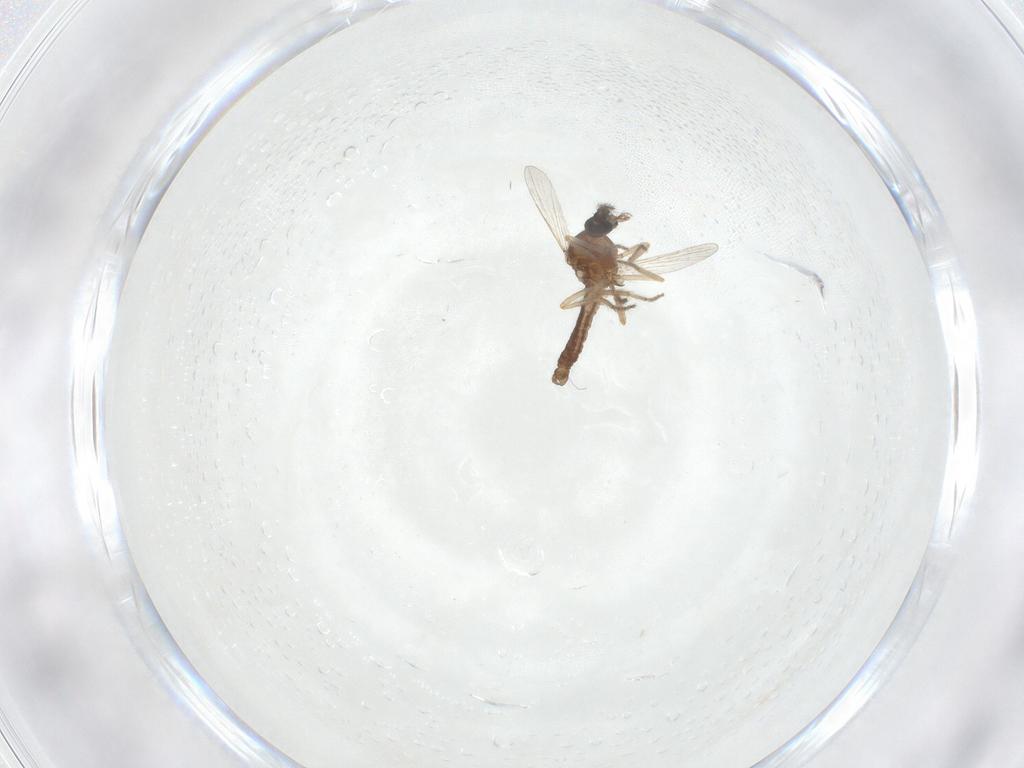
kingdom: Animalia
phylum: Arthropoda
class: Insecta
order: Diptera
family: Ceratopogonidae
